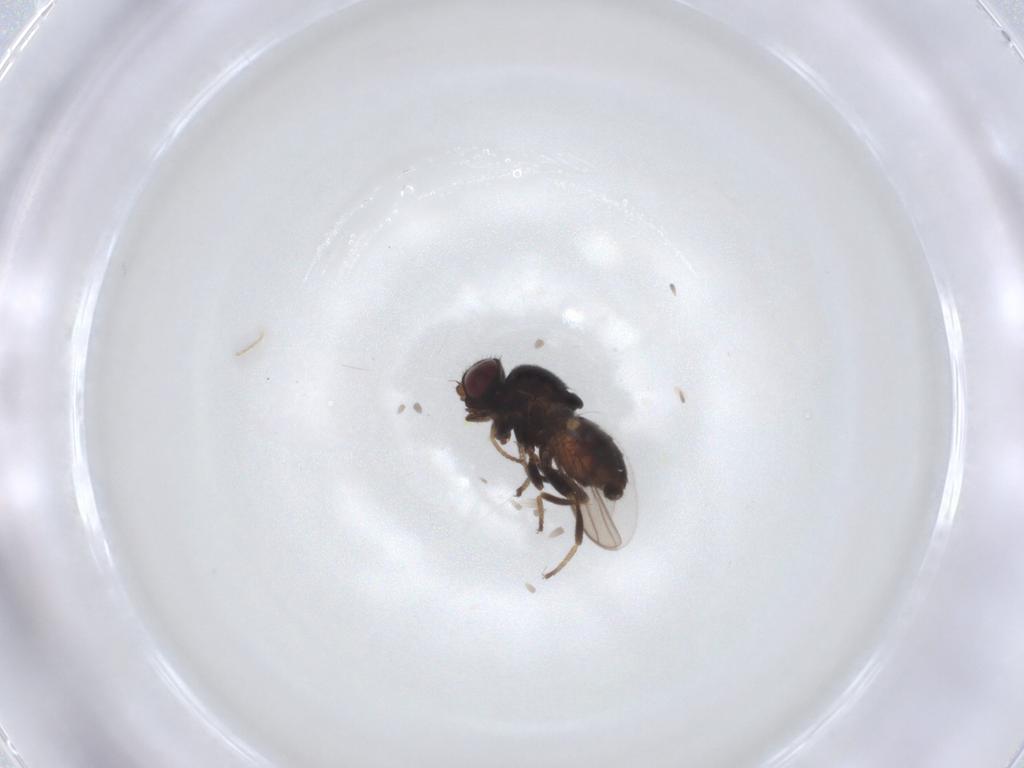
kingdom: Animalia
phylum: Arthropoda
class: Insecta
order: Diptera
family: Chloropidae
